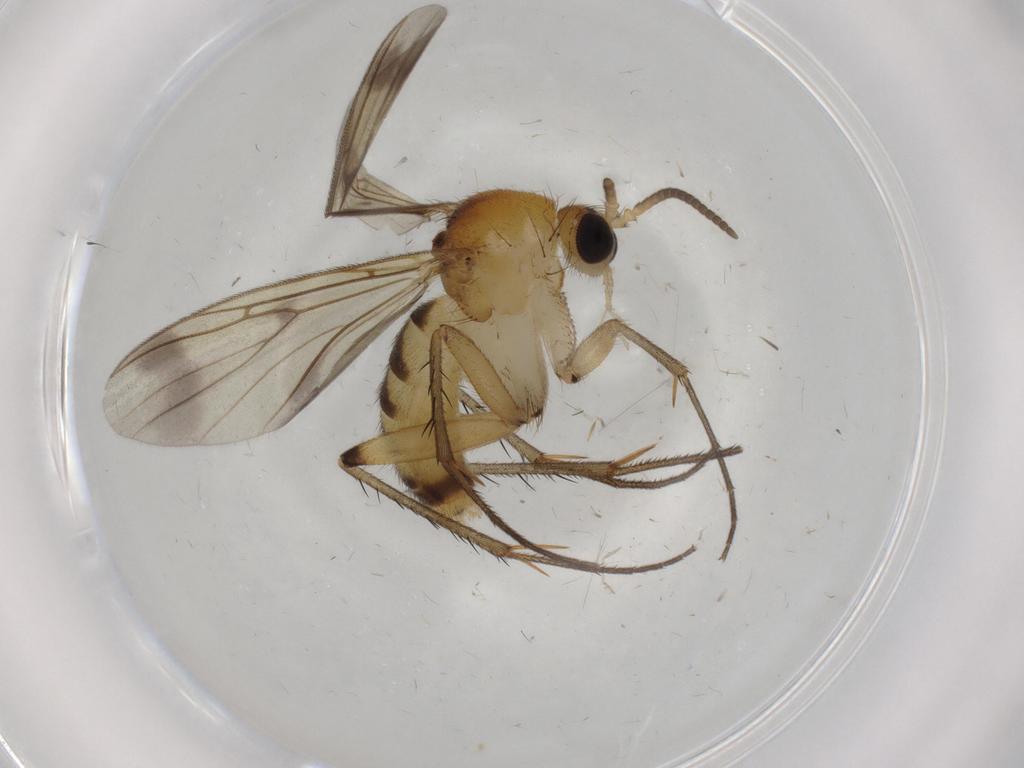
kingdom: Animalia
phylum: Arthropoda
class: Insecta
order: Diptera
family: Mycetophilidae
